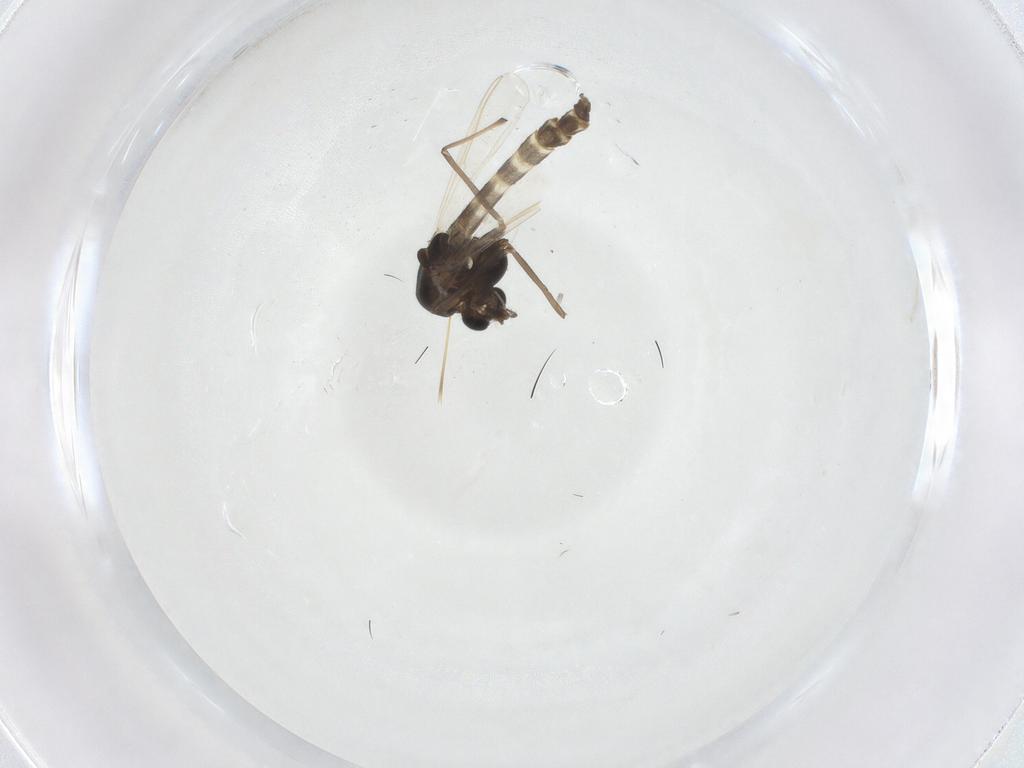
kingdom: Animalia
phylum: Arthropoda
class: Insecta
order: Diptera
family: Chironomidae
